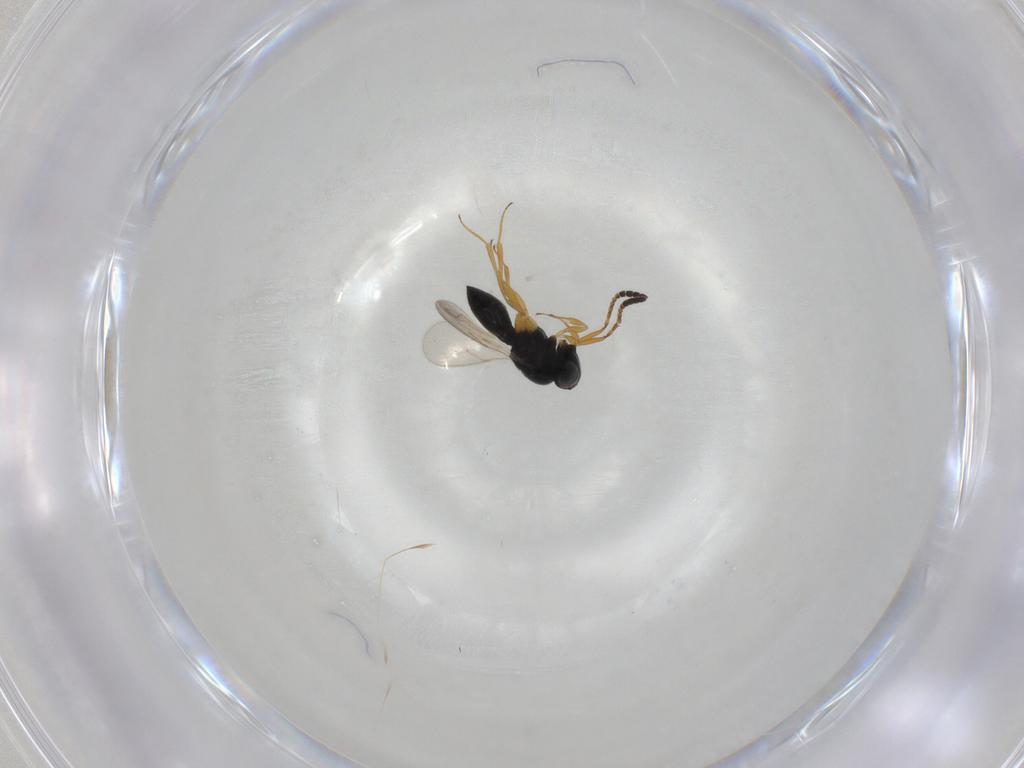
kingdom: Animalia
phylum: Arthropoda
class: Insecta
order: Hymenoptera
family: Scelionidae
